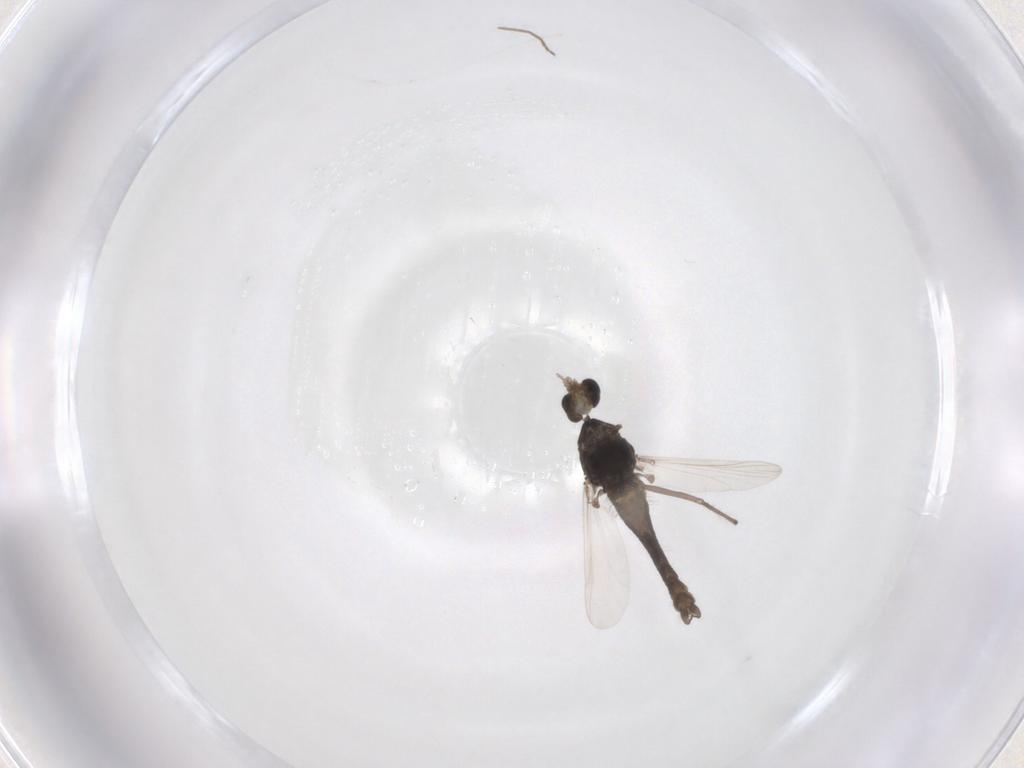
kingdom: Animalia
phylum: Arthropoda
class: Insecta
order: Diptera
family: Chironomidae
